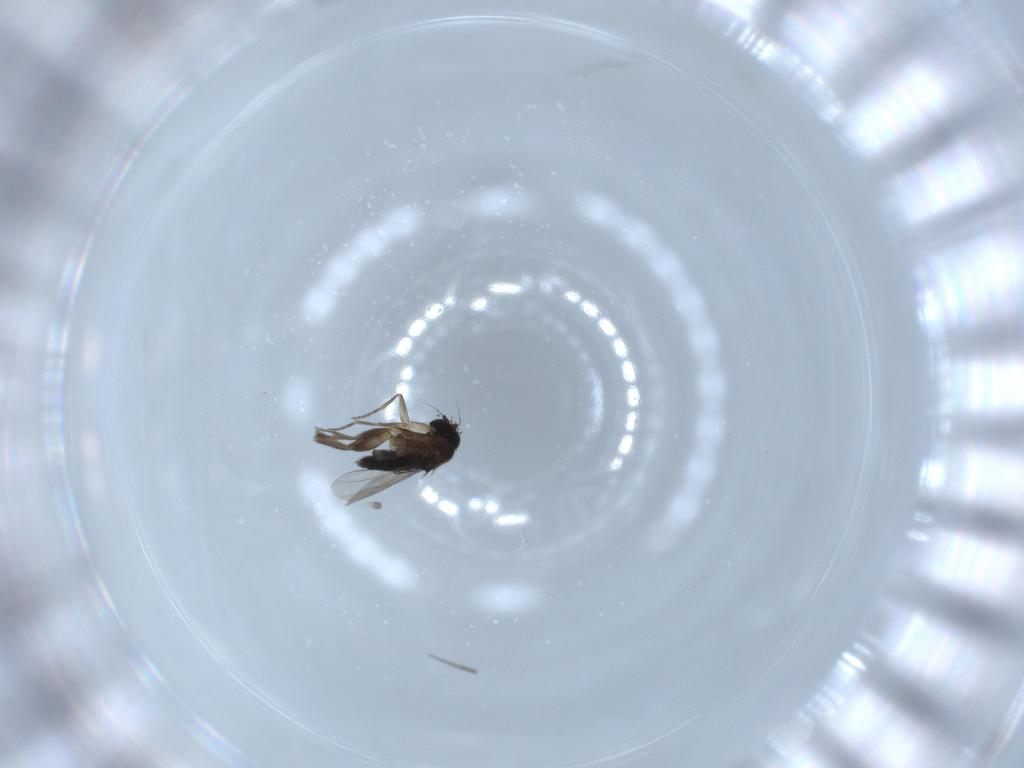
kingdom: Animalia
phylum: Arthropoda
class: Insecta
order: Diptera
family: Phoridae
